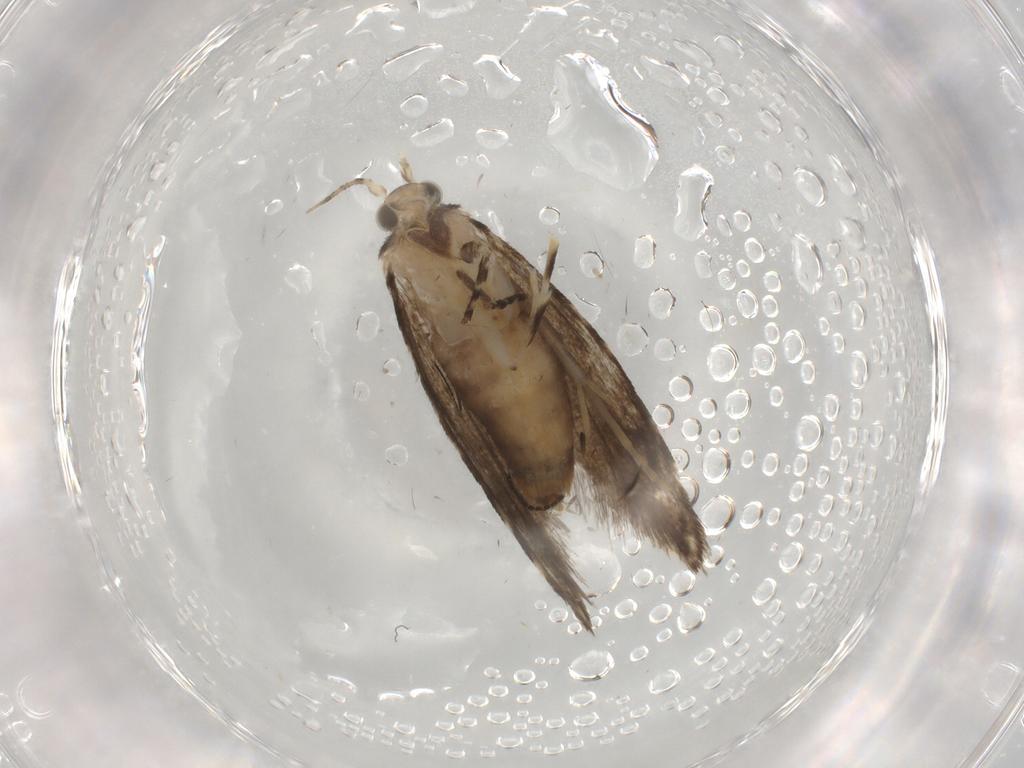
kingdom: Animalia
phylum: Arthropoda
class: Insecta
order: Lepidoptera
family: Tineidae
